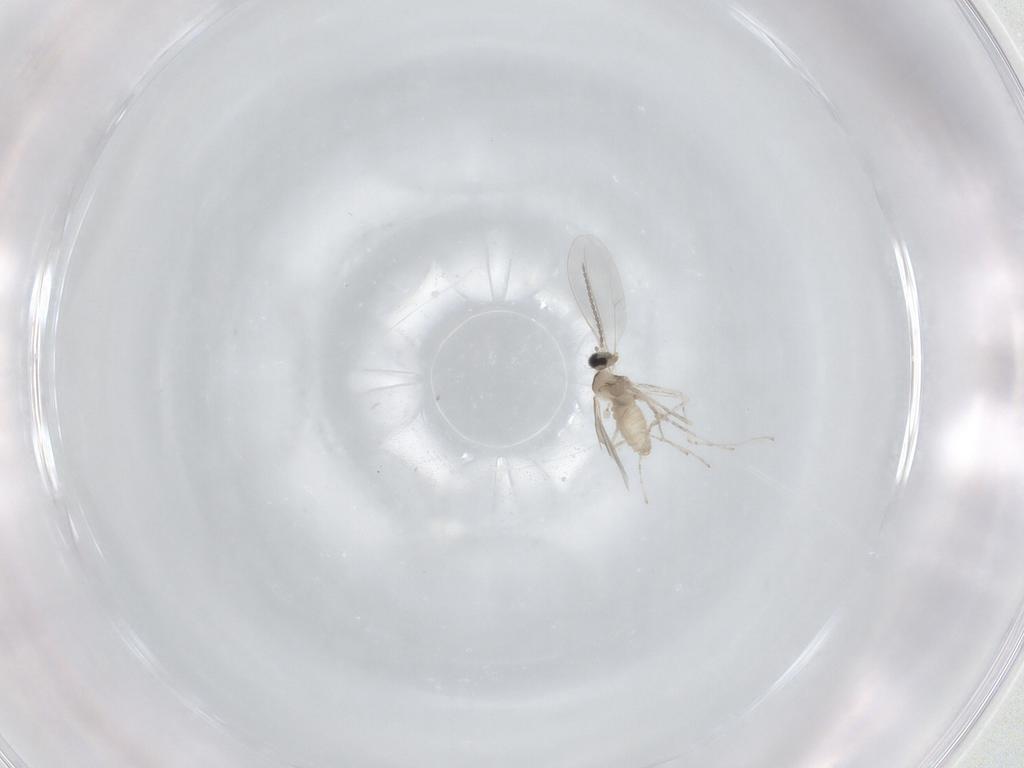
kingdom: Animalia
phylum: Arthropoda
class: Insecta
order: Diptera
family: Cecidomyiidae
